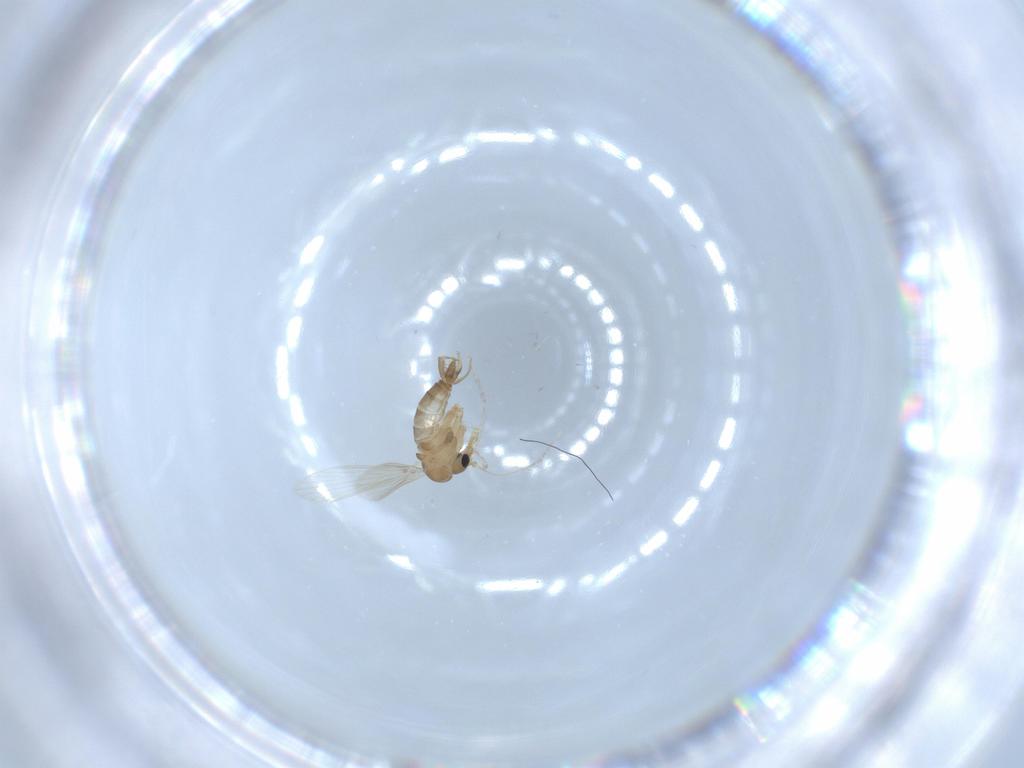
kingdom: Animalia
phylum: Arthropoda
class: Insecta
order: Diptera
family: Psychodidae
